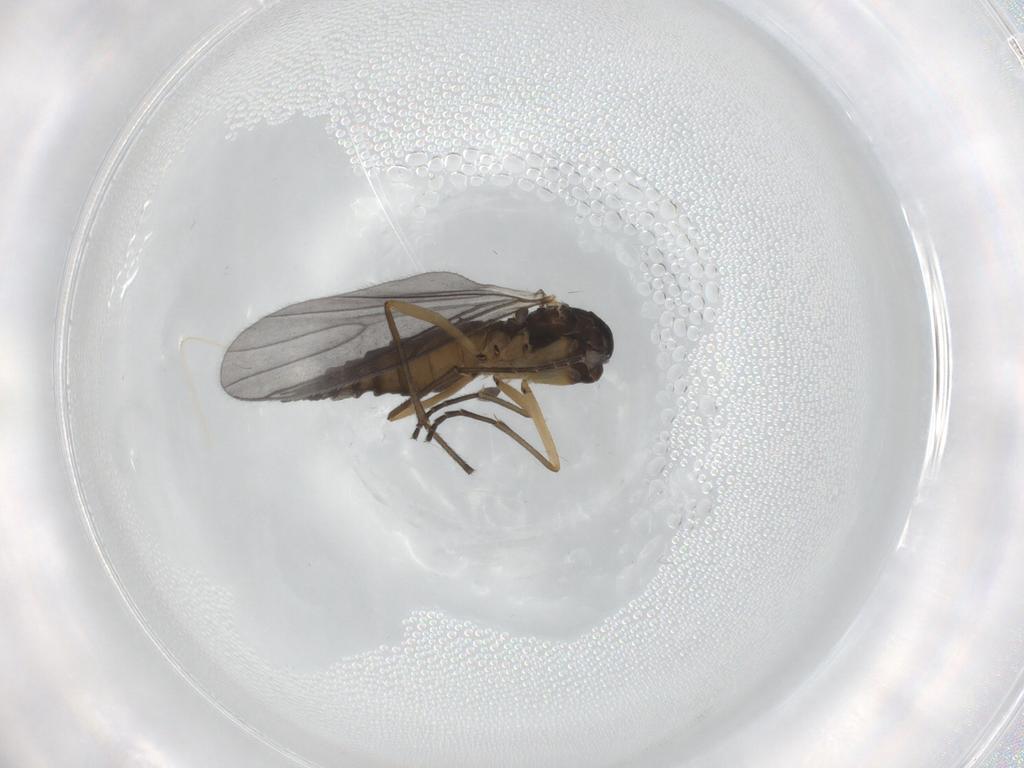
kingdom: Animalia
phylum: Arthropoda
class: Insecta
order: Diptera
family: Sciaridae
